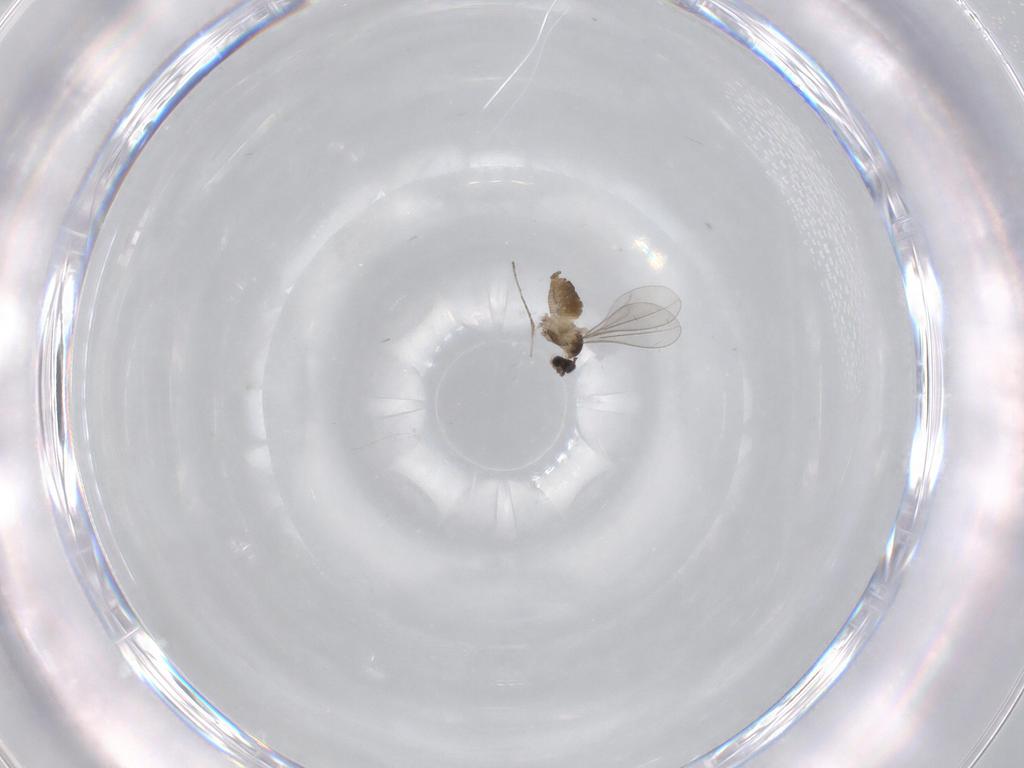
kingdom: Animalia
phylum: Arthropoda
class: Insecta
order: Diptera
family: Cecidomyiidae
